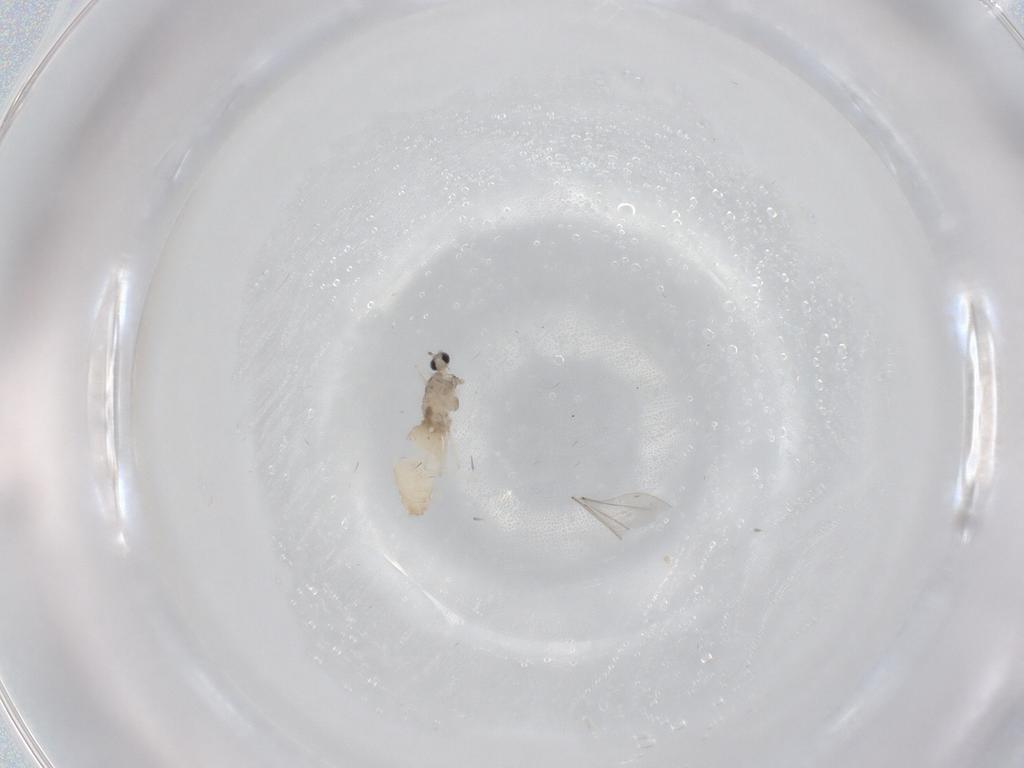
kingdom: Animalia
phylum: Arthropoda
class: Insecta
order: Diptera
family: Cecidomyiidae
